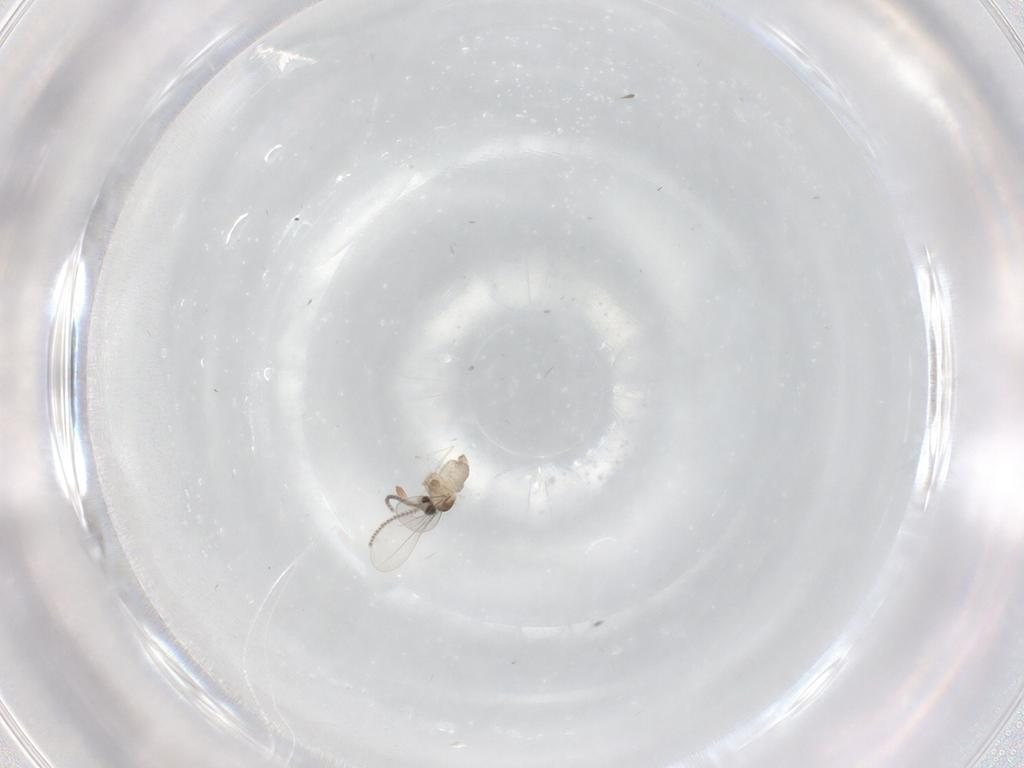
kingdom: Animalia
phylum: Arthropoda
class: Insecta
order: Diptera
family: Cecidomyiidae
